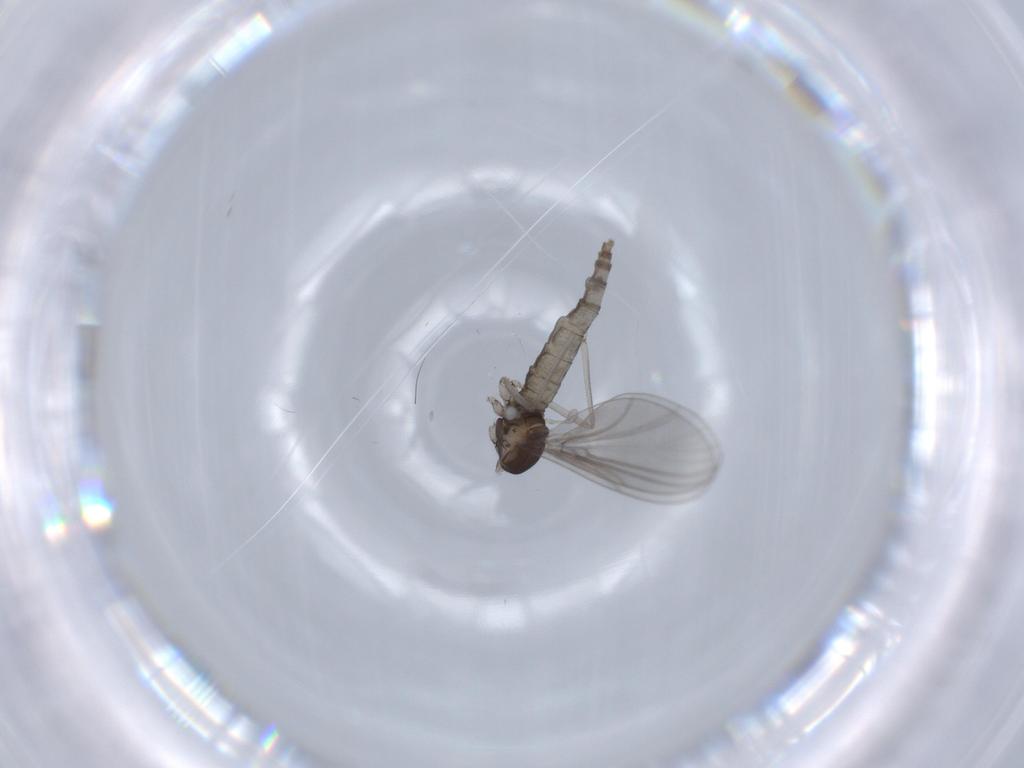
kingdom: Animalia
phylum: Arthropoda
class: Insecta
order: Diptera
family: Cecidomyiidae
